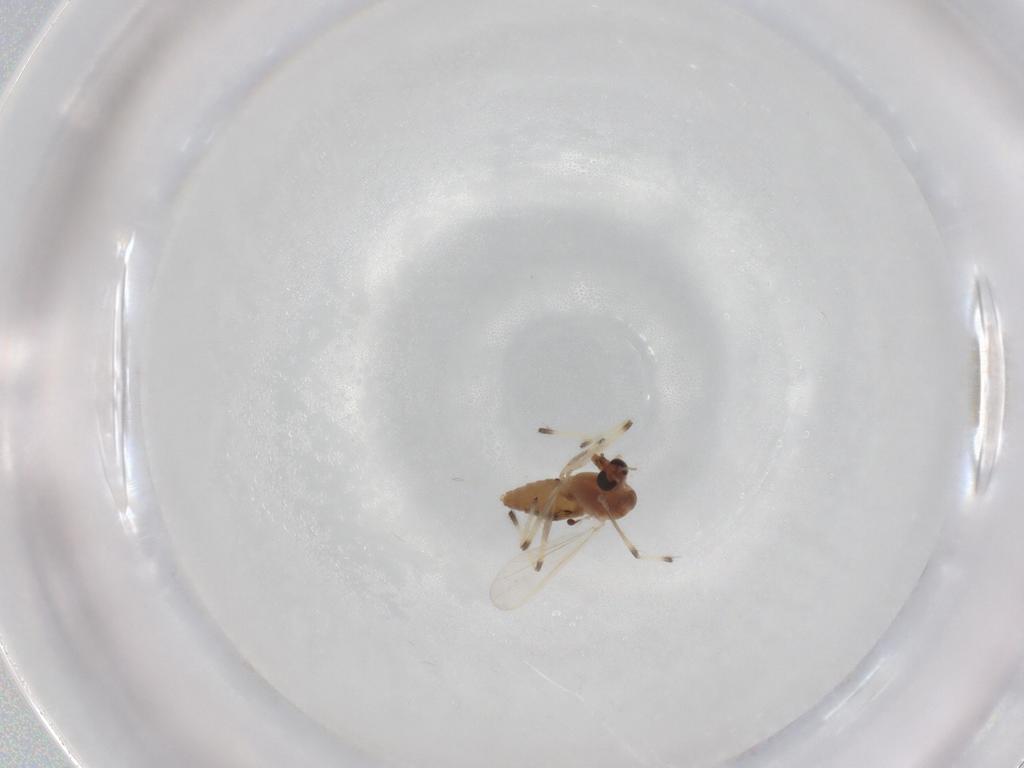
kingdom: Animalia
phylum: Arthropoda
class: Insecta
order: Diptera
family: Chironomidae
